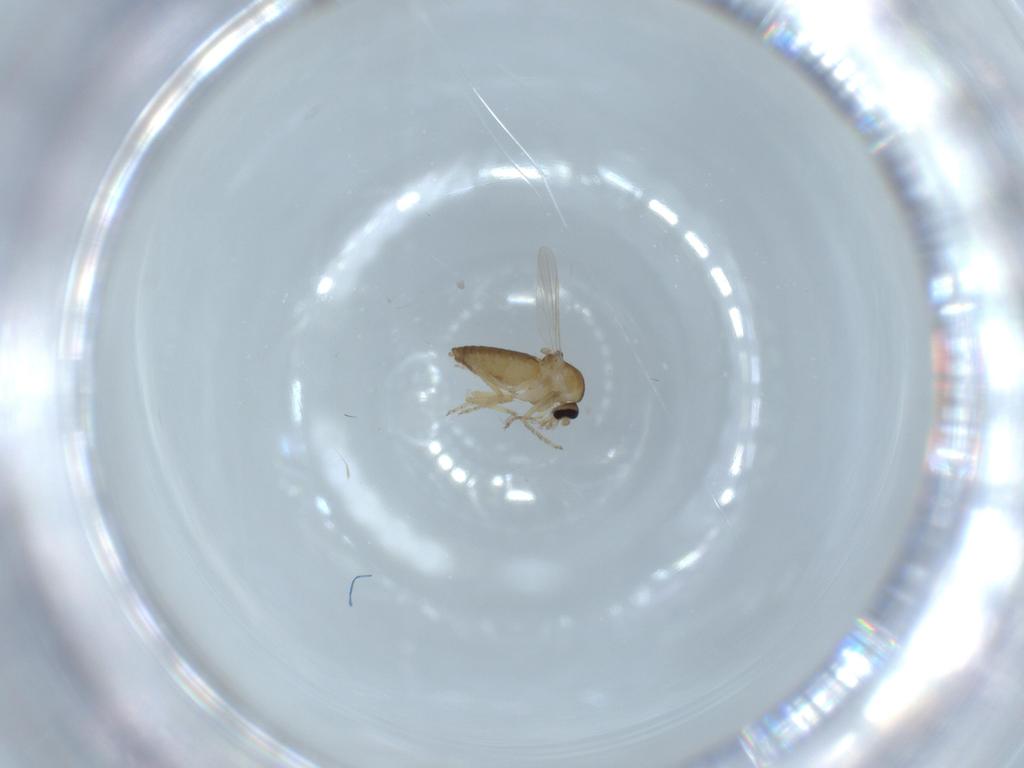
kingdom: Animalia
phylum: Arthropoda
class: Insecta
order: Diptera
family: Ceratopogonidae
